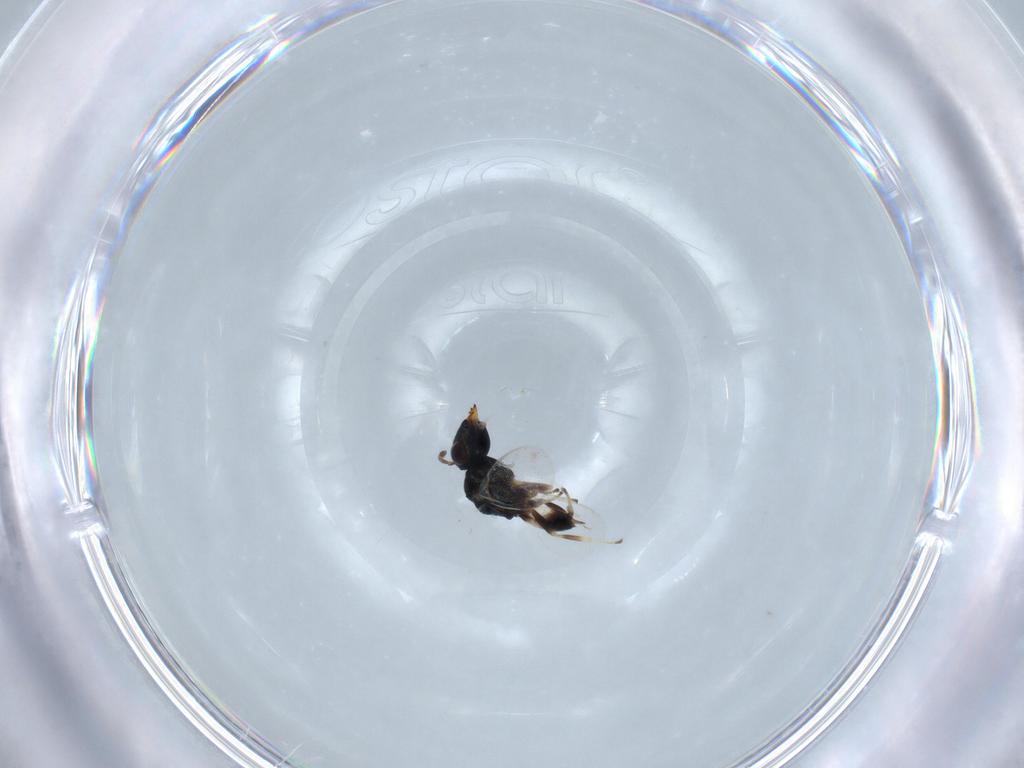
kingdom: Animalia
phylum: Arthropoda
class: Insecta
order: Hymenoptera
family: Pteromalidae
